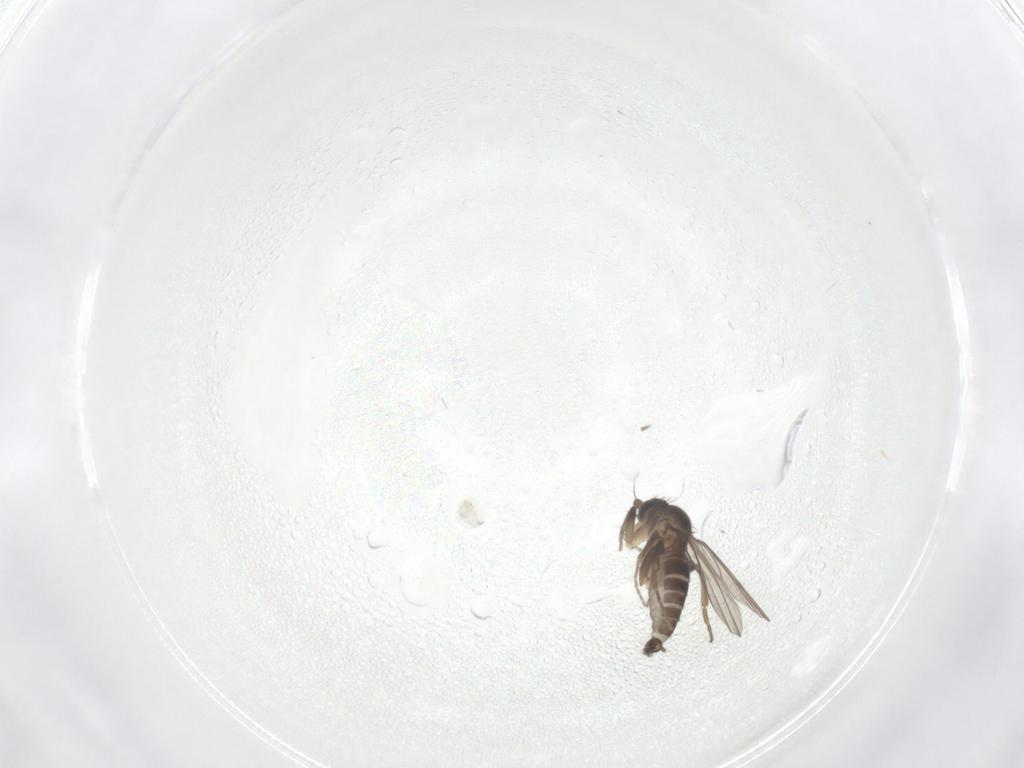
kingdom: Animalia
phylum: Arthropoda
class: Insecta
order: Diptera
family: Phoridae
